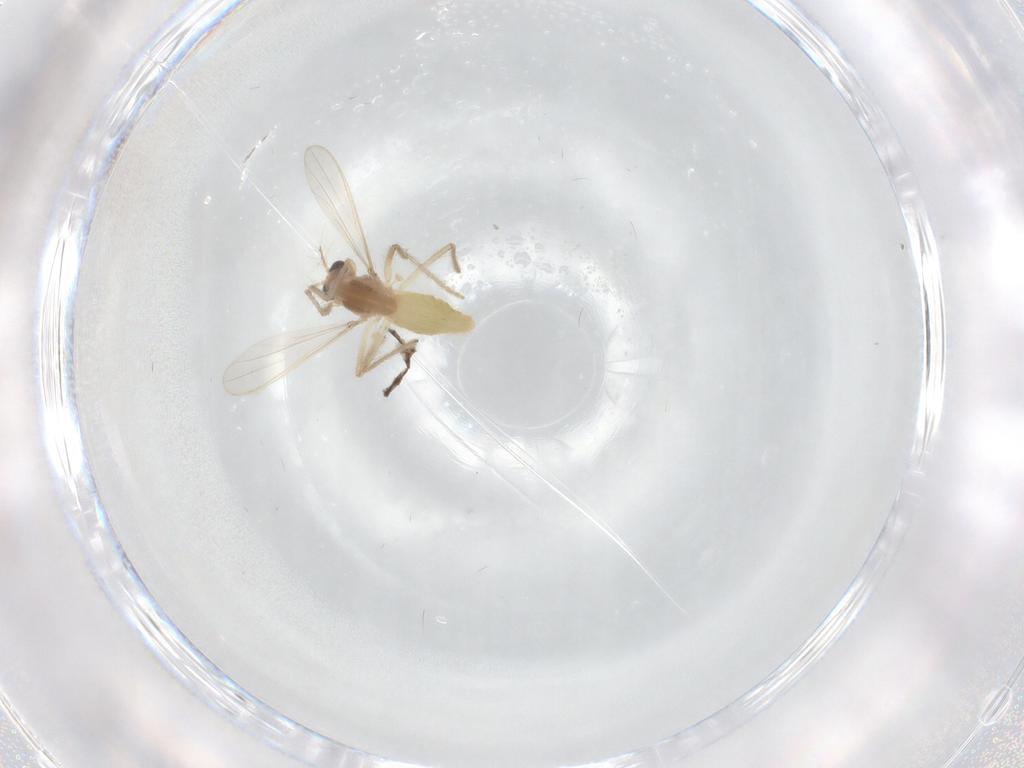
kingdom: Animalia
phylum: Arthropoda
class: Insecta
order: Diptera
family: Chironomidae
